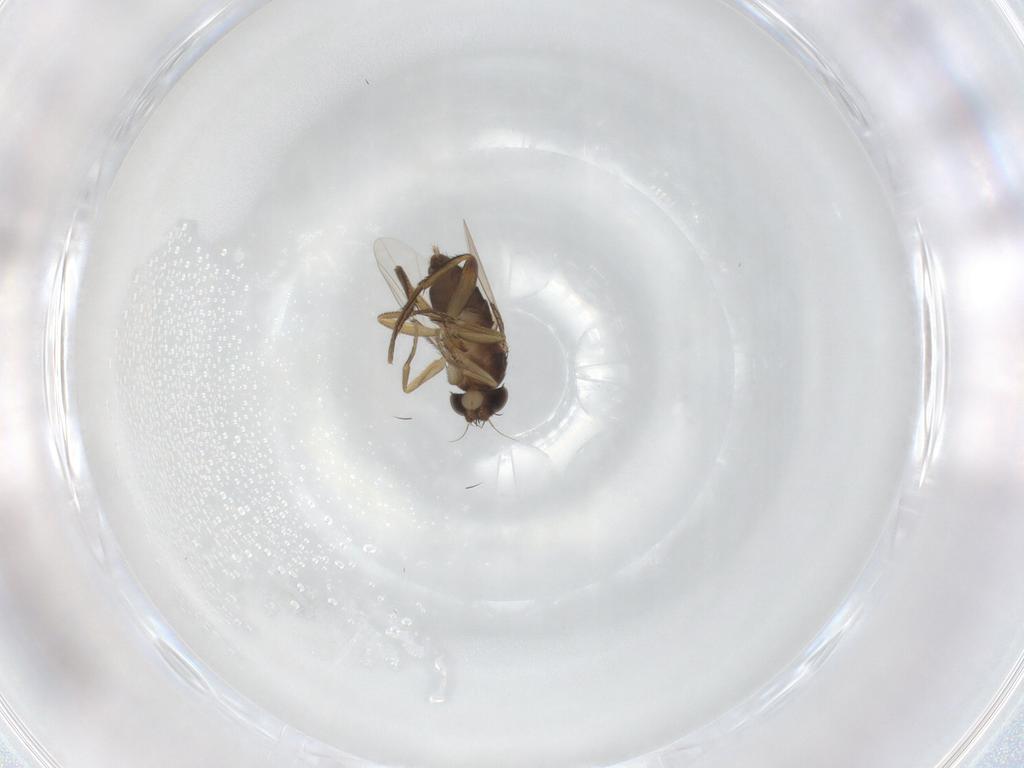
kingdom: Animalia
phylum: Arthropoda
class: Insecta
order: Diptera
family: Phoridae
